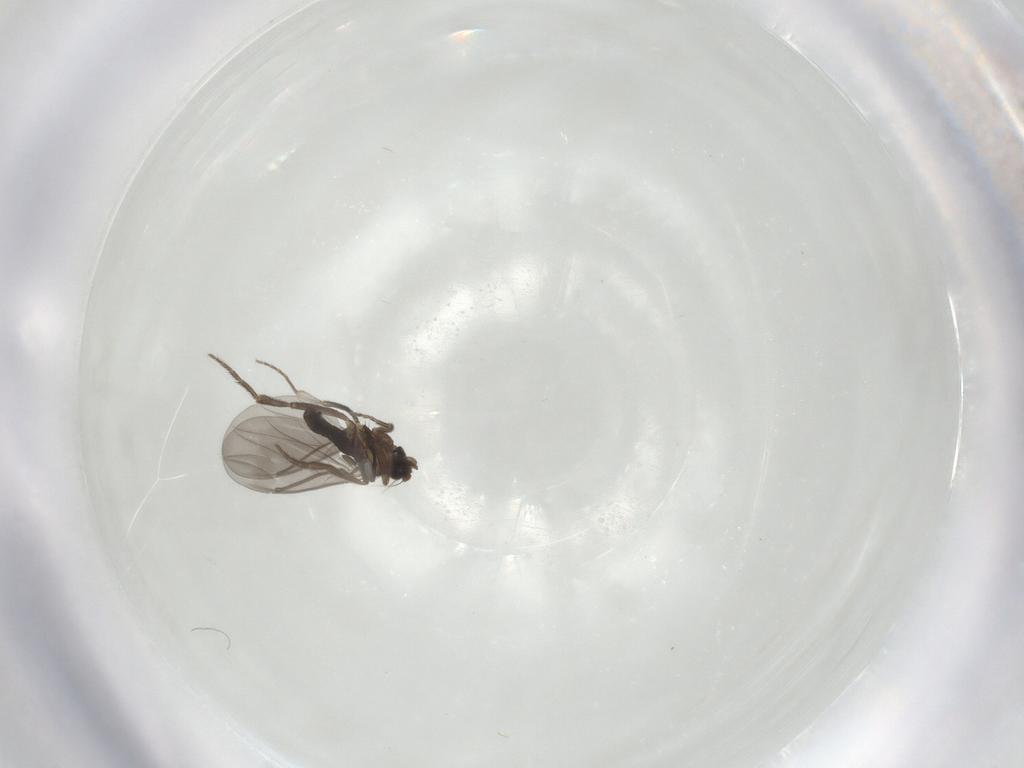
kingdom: Animalia
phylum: Arthropoda
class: Insecta
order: Diptera
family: Phoridae
